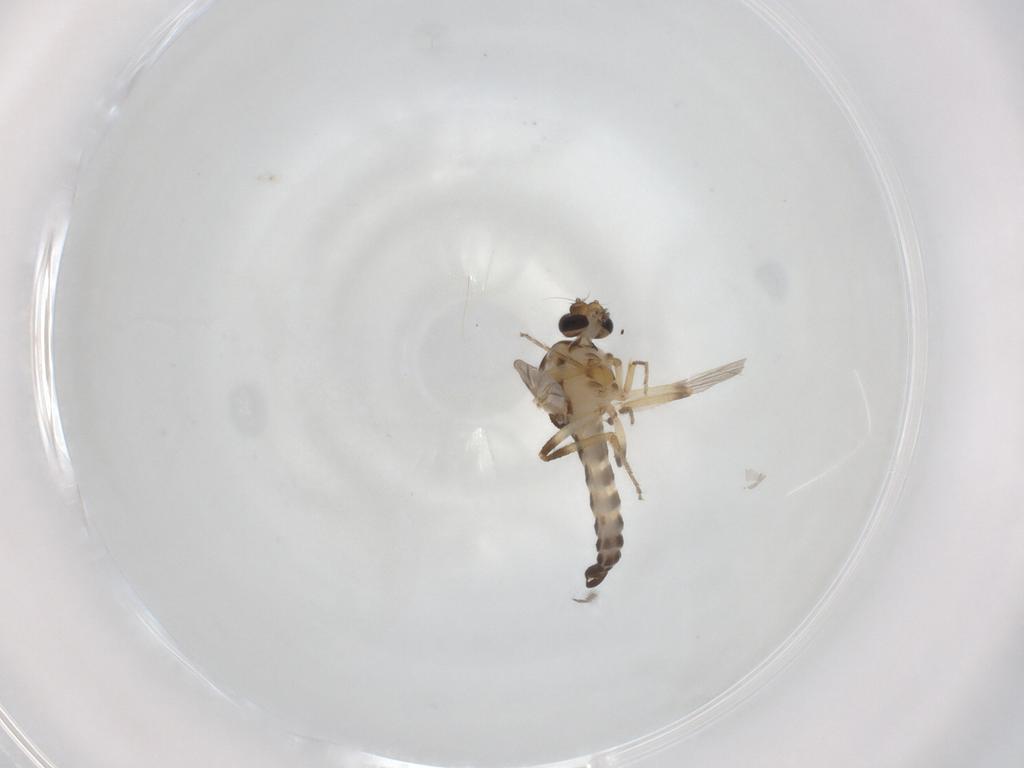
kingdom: Animalia
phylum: Arthropoda
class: Insecta
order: Diptera
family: Ceratopogonidae
